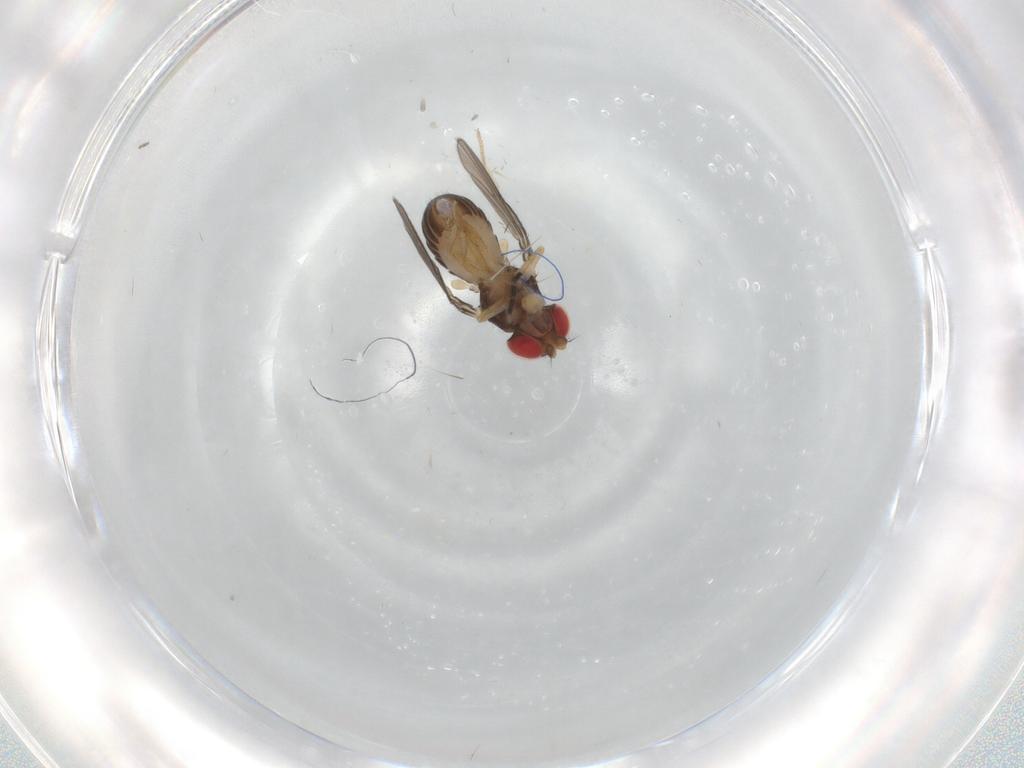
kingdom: Animalia
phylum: Arthropoda
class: Insecta
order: Diptera
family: Drosophilidae
